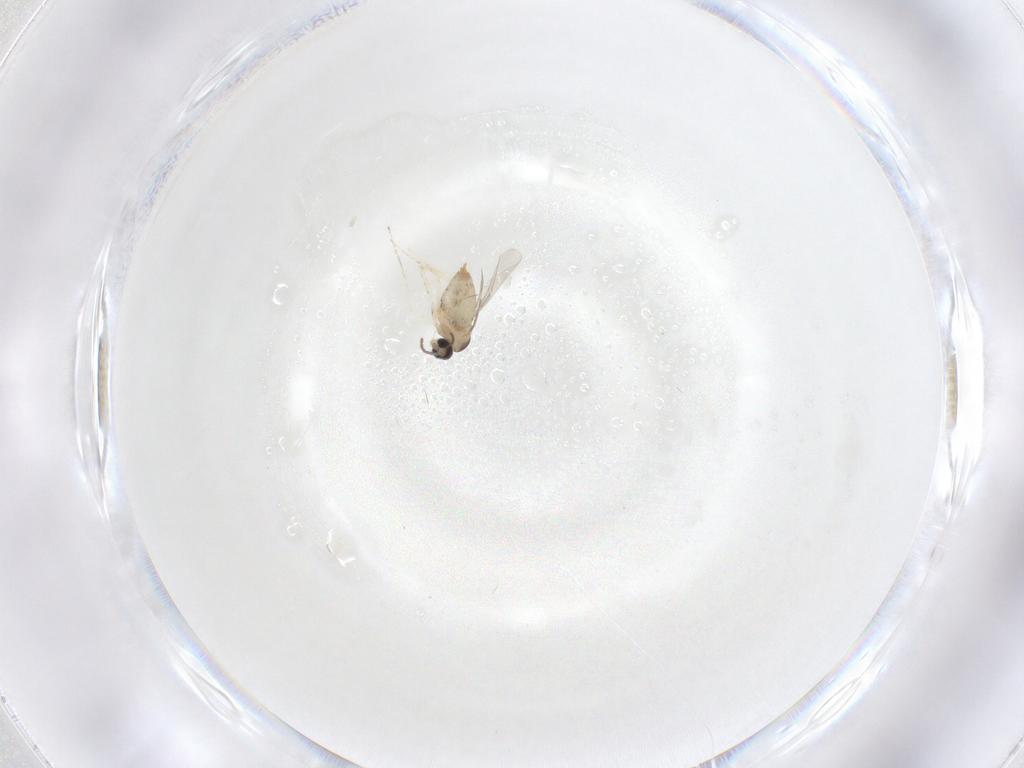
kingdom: Animalia
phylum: Arthropoda
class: Insecta
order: Diptera
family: Cecidomyiidae
